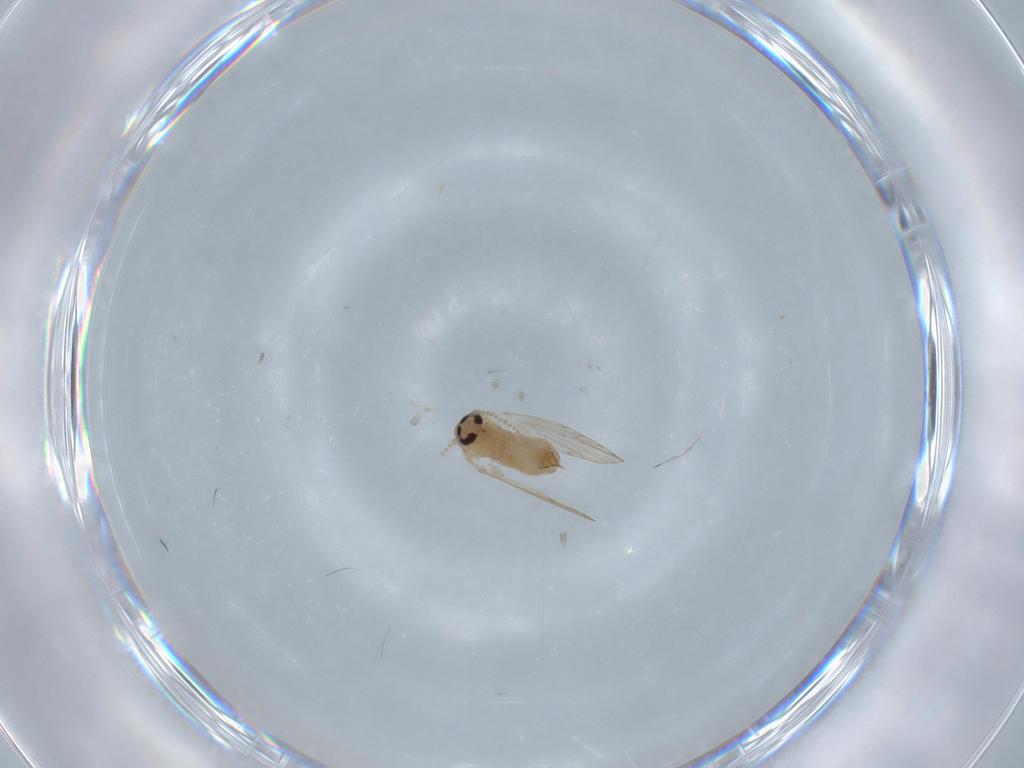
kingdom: Animalia
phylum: Arthropoda
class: Insecta
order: Diptera
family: Psychodidae
